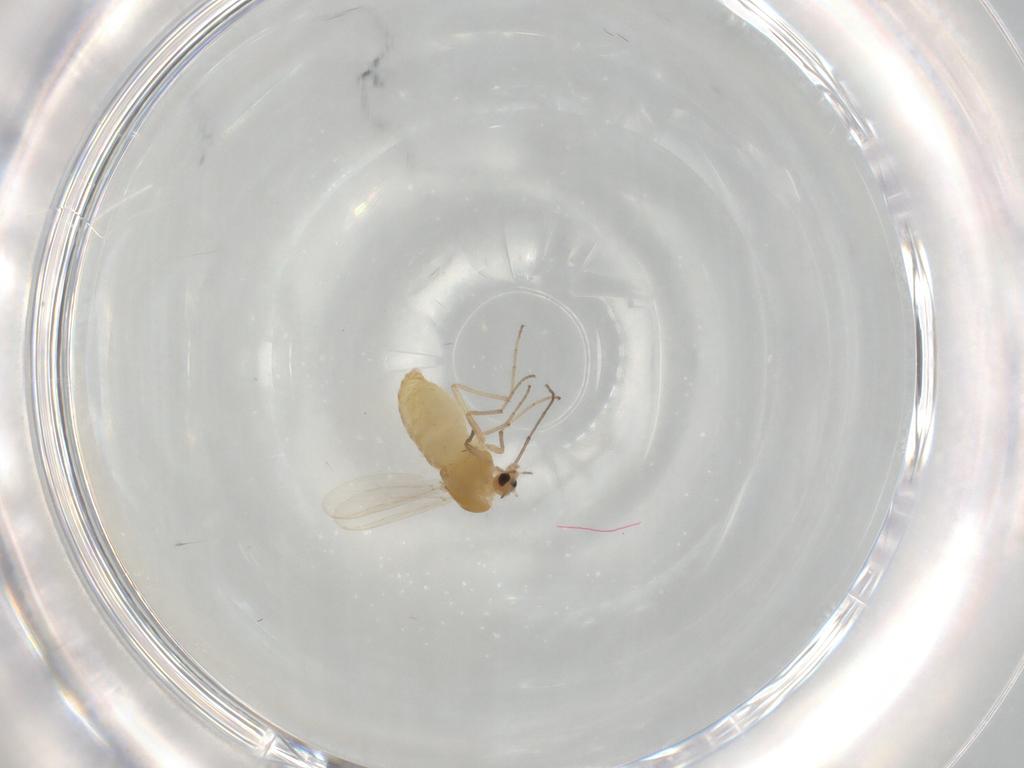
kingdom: Animalia
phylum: Arthropoda
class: Insecta
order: Diptera
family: Chironomidae
